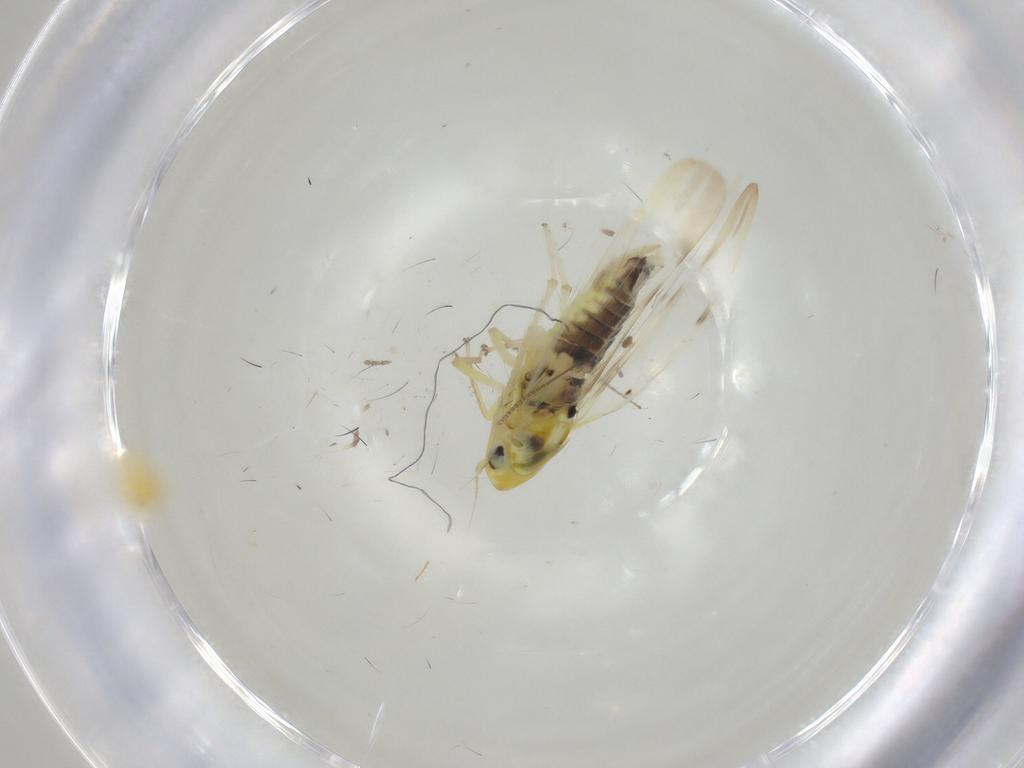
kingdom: Animalia
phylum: Arthropoda
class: Insecta
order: Hemiptera
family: Cicadellidae
